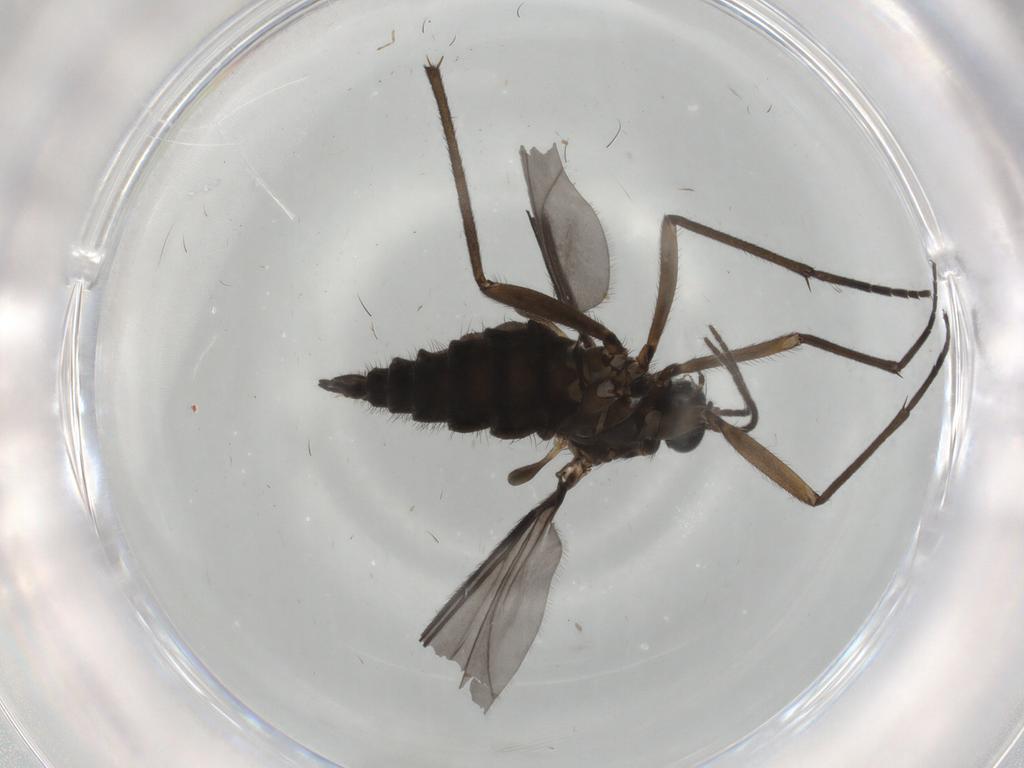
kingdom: Animalia
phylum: Arthropoda
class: Insecta
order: Diptera
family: Sciaridae
